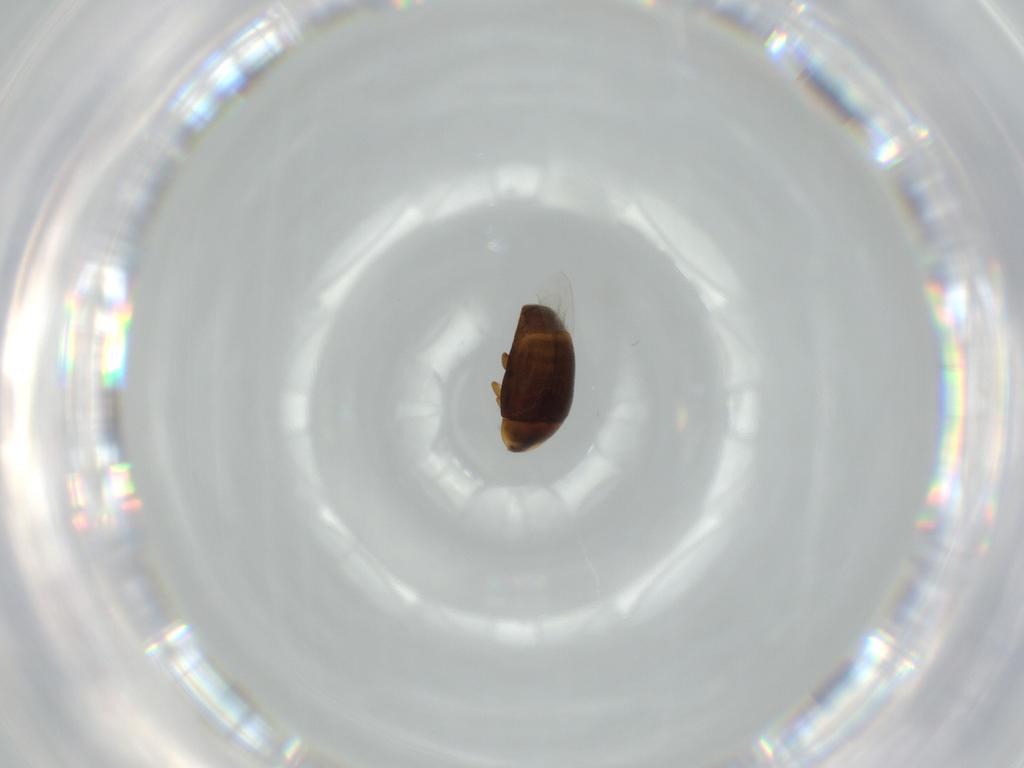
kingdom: Animalia
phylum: Arthropoda
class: Insecta
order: Coleoptera
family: Corylophidae
